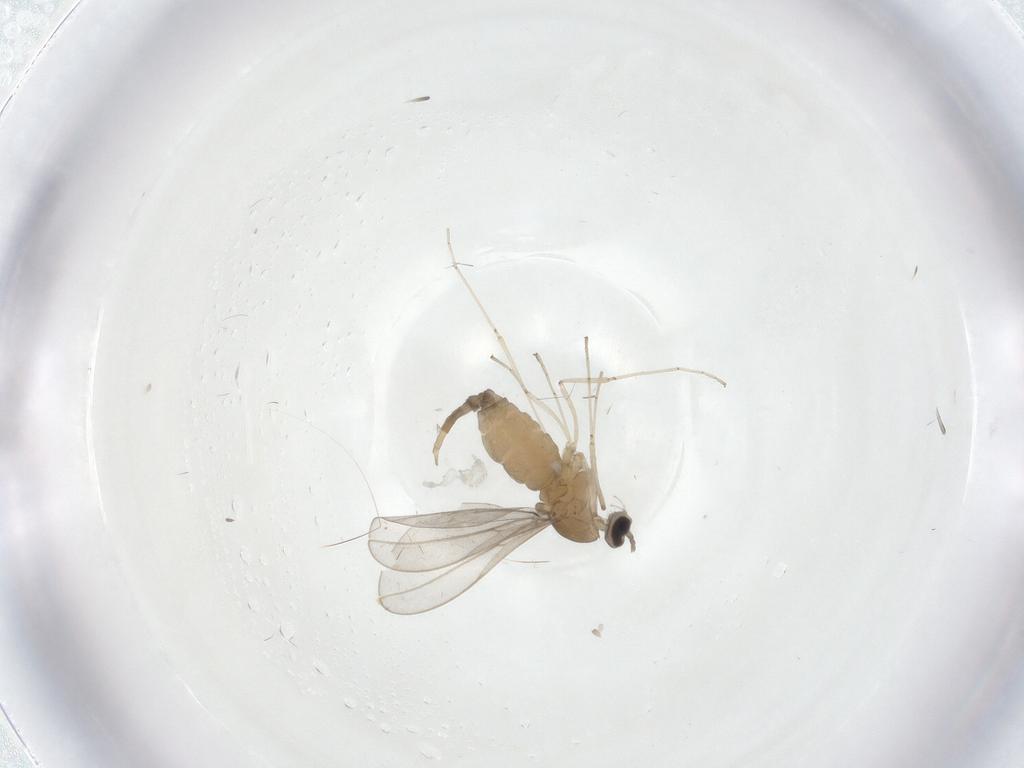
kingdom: Animalia
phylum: Arthropoda
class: Insecta
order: Diptera
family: Cecidomyiidae
